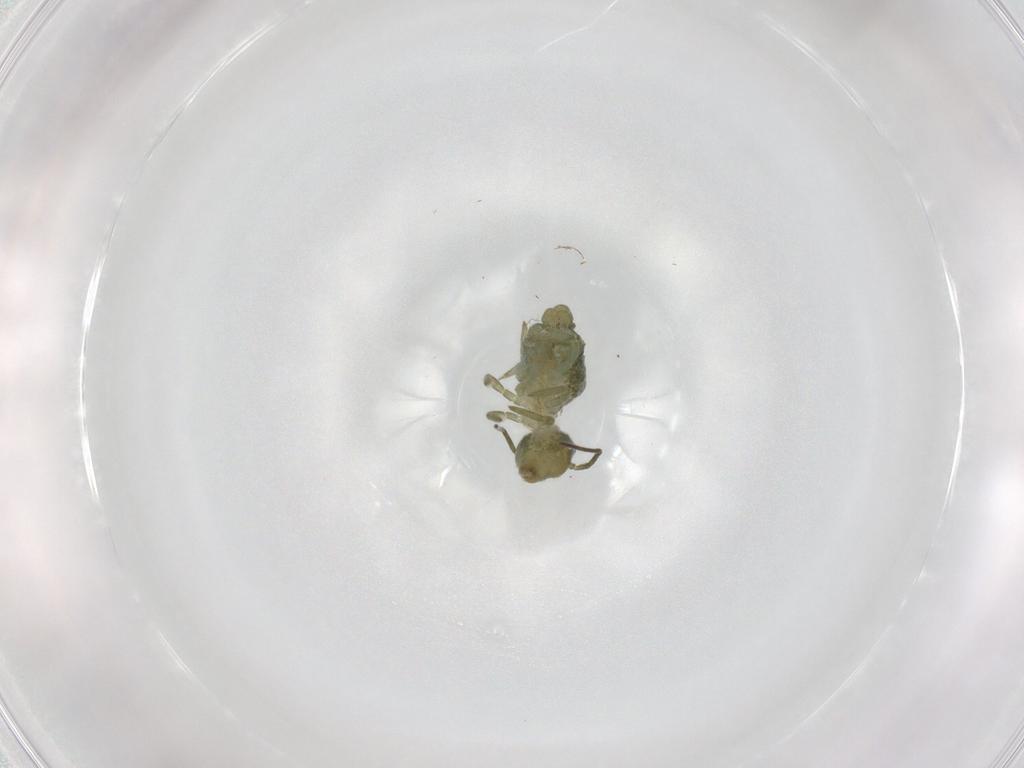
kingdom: Animalia
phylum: Arthropoda
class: Collembola
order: Symphypleona
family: Sminthuridae
